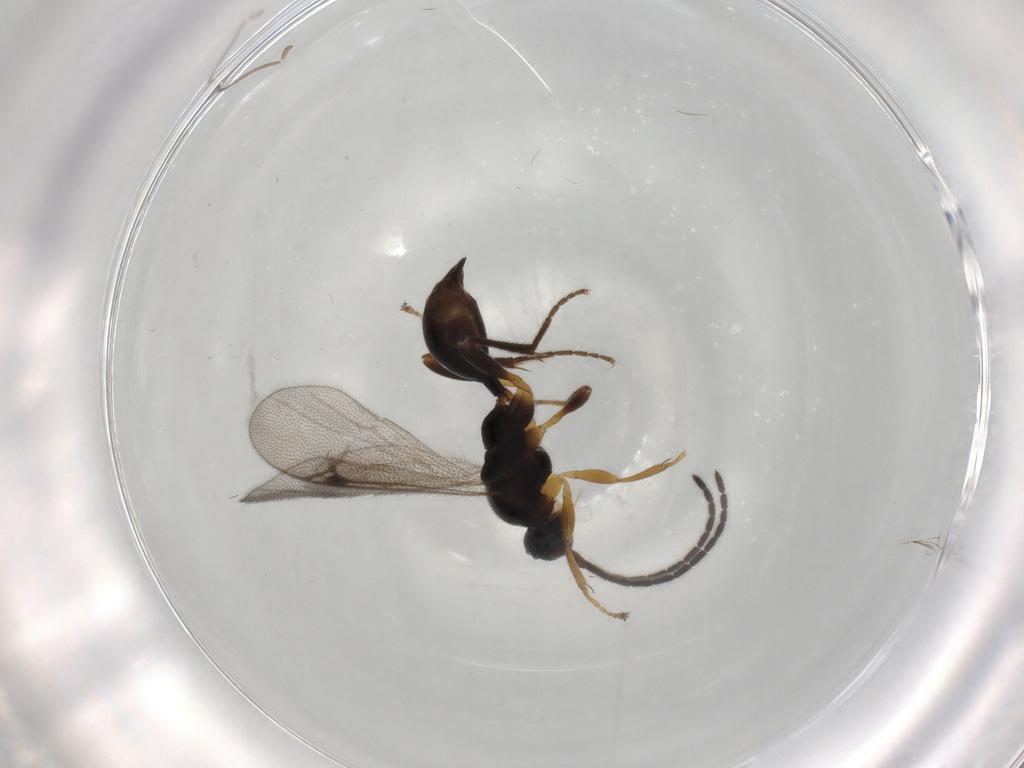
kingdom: Animalia
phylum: Arthropoda
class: Insecta
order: Hymenoptera
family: Proctotrupidae
